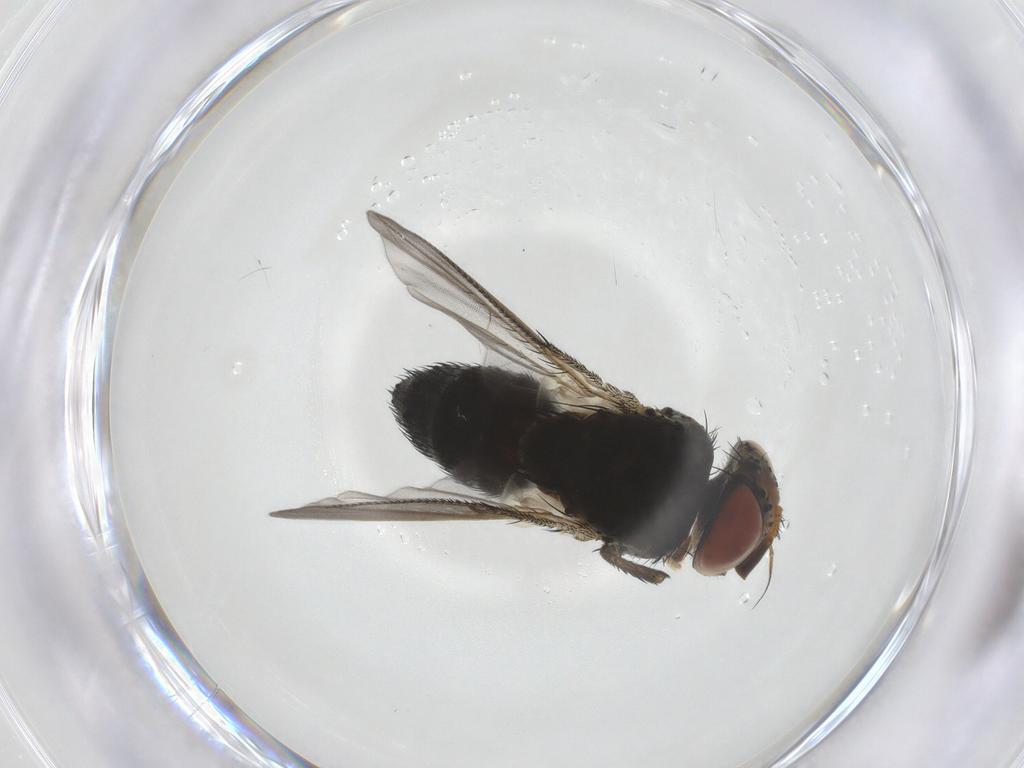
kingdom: Animalia
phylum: Arthropoda
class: Insecta
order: Diptera
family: Tachinidae
